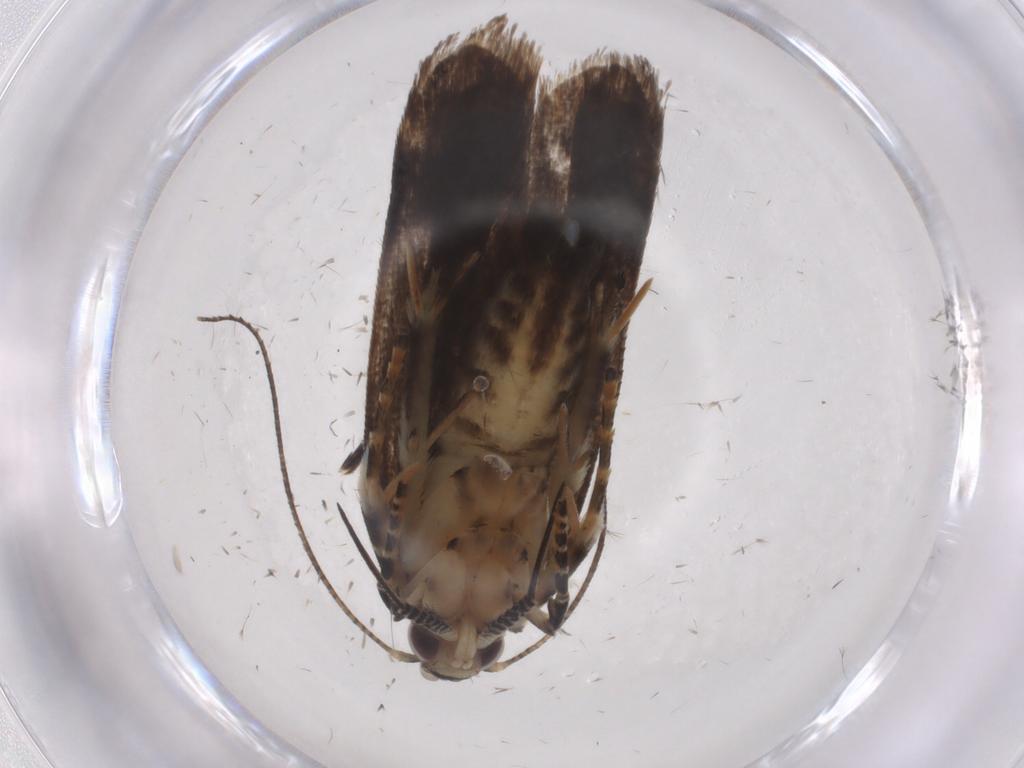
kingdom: Animalia
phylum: Arthropoda
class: Insecta
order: Lepidoptera
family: Gelechiidae
